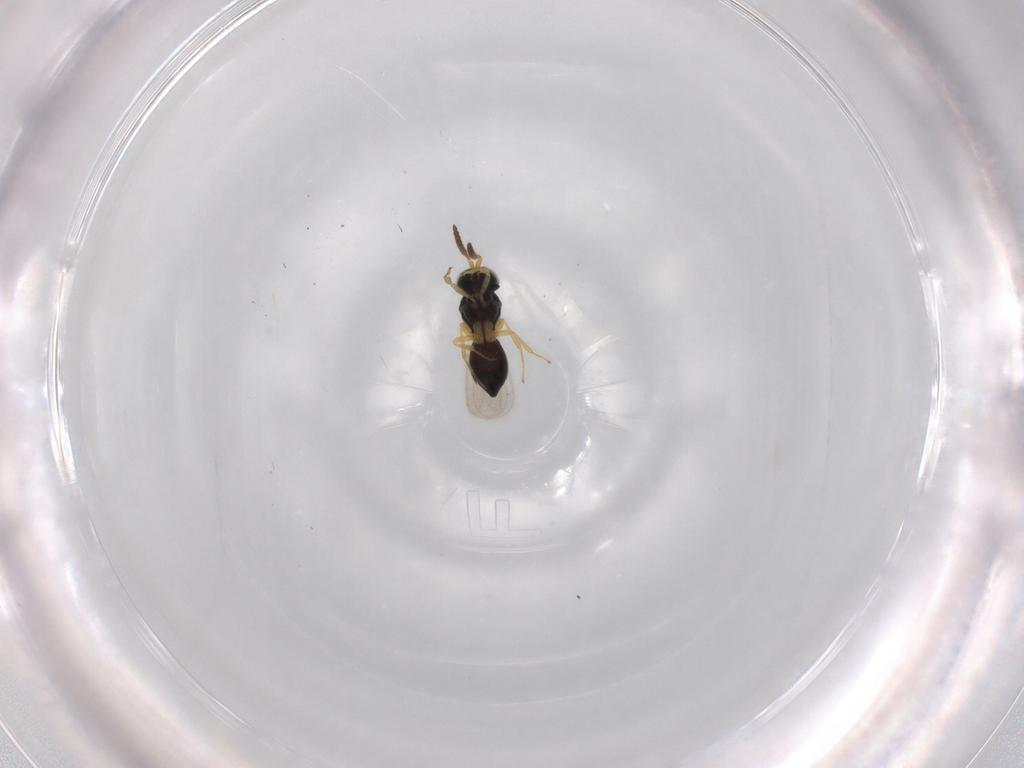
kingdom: Animalia
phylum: Arthropoda
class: Insecta
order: Hymenoptera
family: Scelionidae
